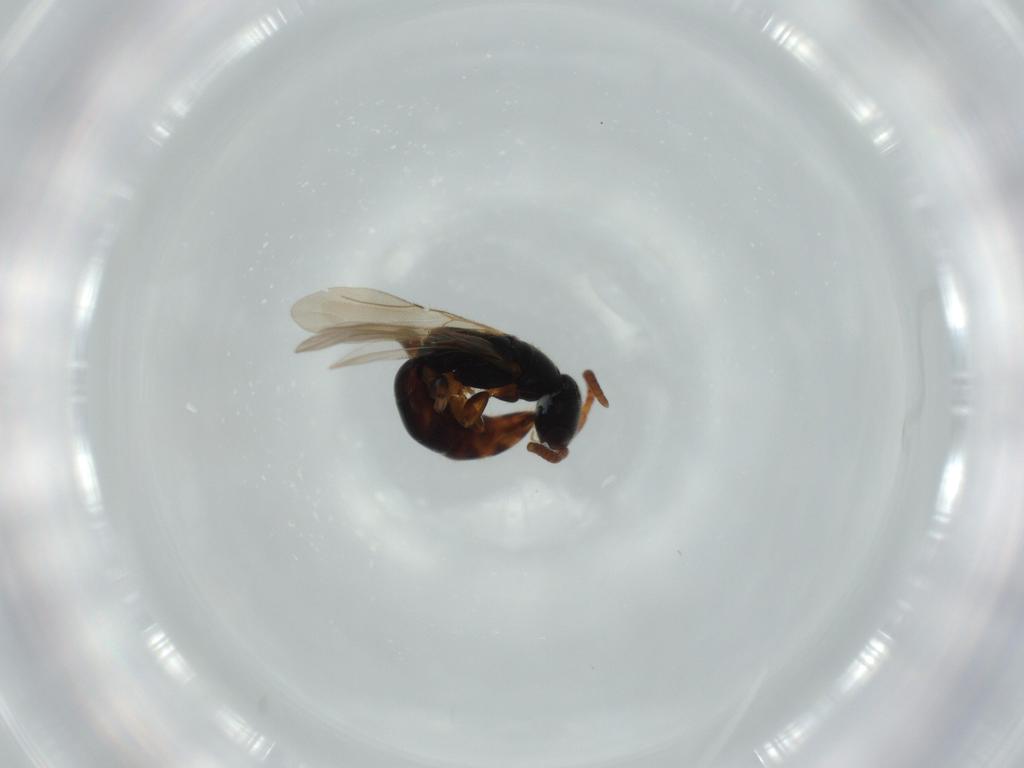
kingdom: Animalia
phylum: Arthropoda
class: Insecta
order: Hymenoptera
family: Bethylidae
